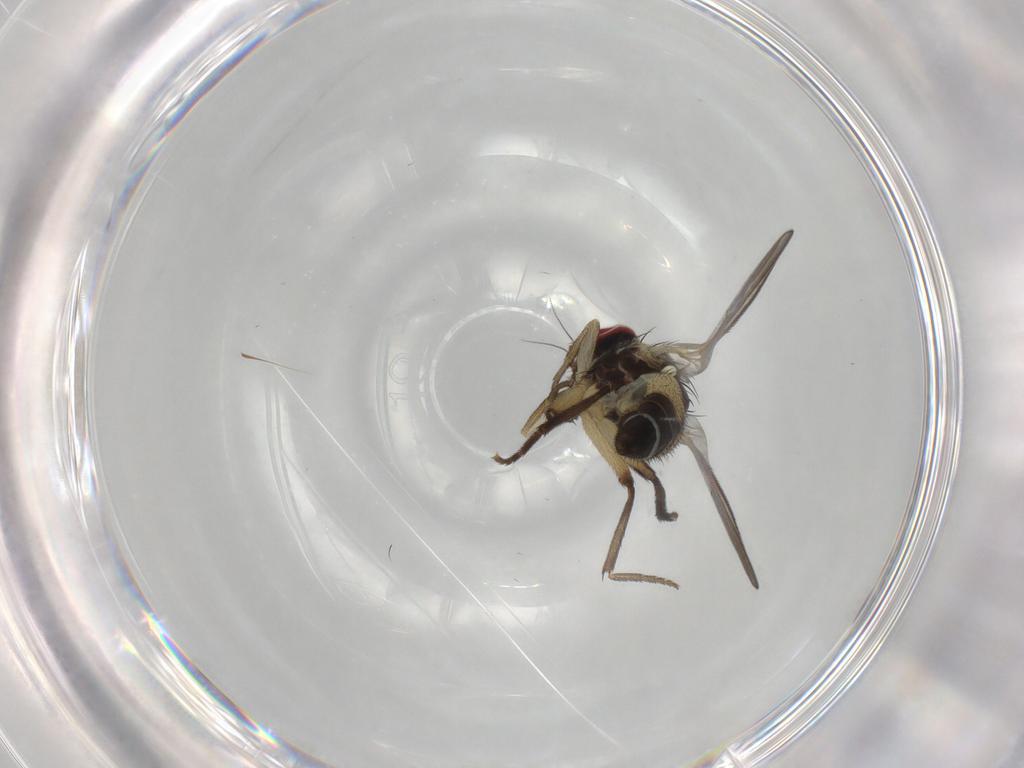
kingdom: Animalia
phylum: Arthropoda
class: Insecta
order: Diptera
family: Agromyzidae
